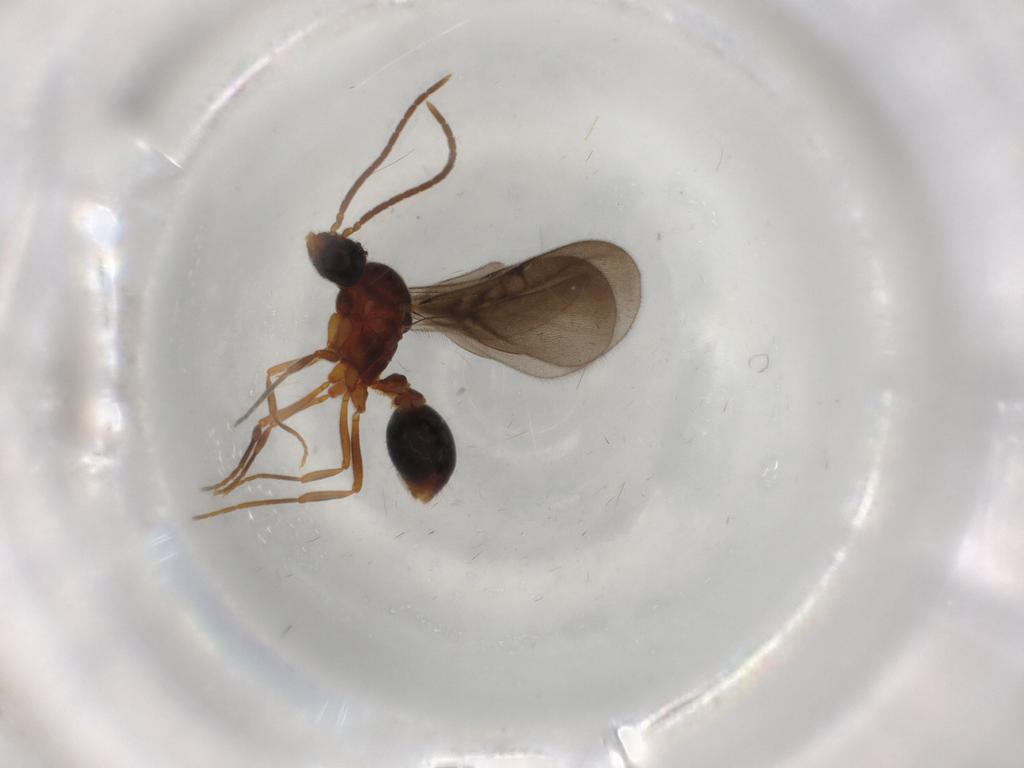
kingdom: Animalia
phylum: Arthropoda
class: Insecta
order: Hymenoptera
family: Formicidae
